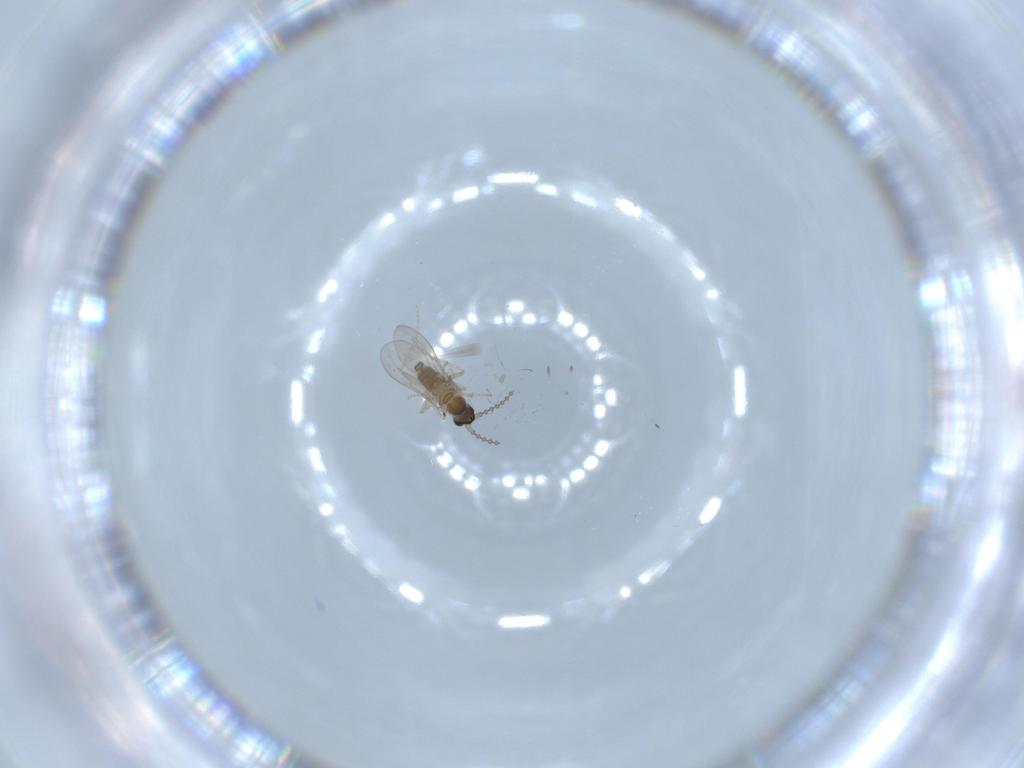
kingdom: Animalia
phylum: Arthropoda
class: Insecta
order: Diptera
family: Cecidomyiidae
